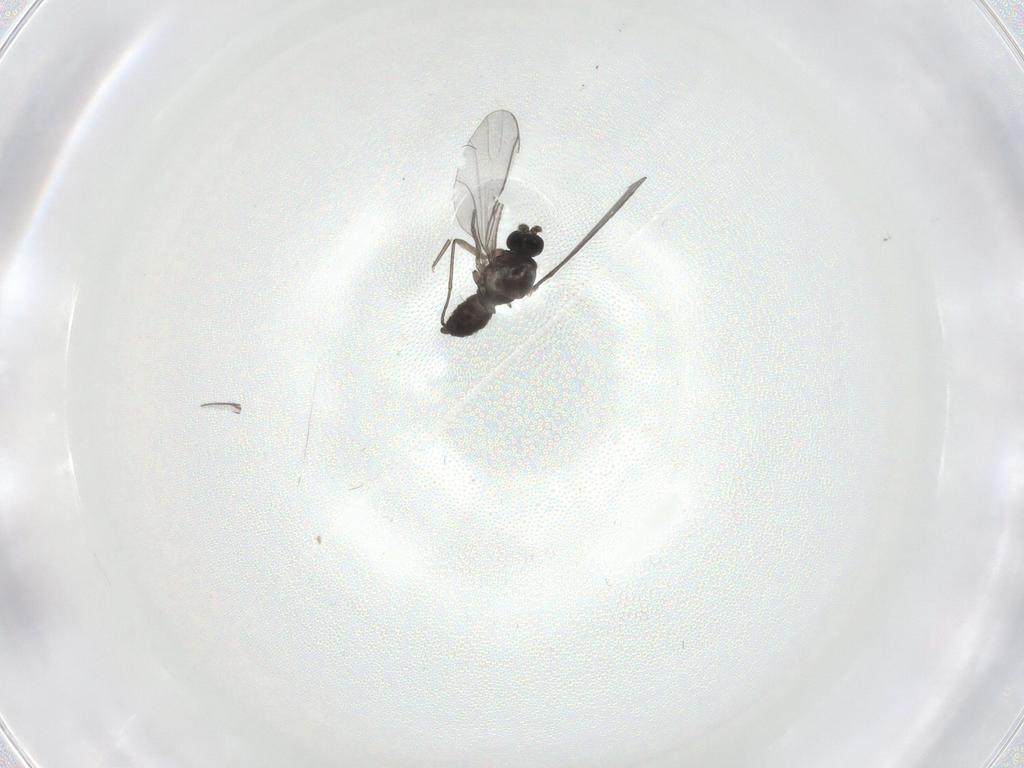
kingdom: Animalia
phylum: Arthropoda
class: Insecta
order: Diptera
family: Cecidomyiidae
